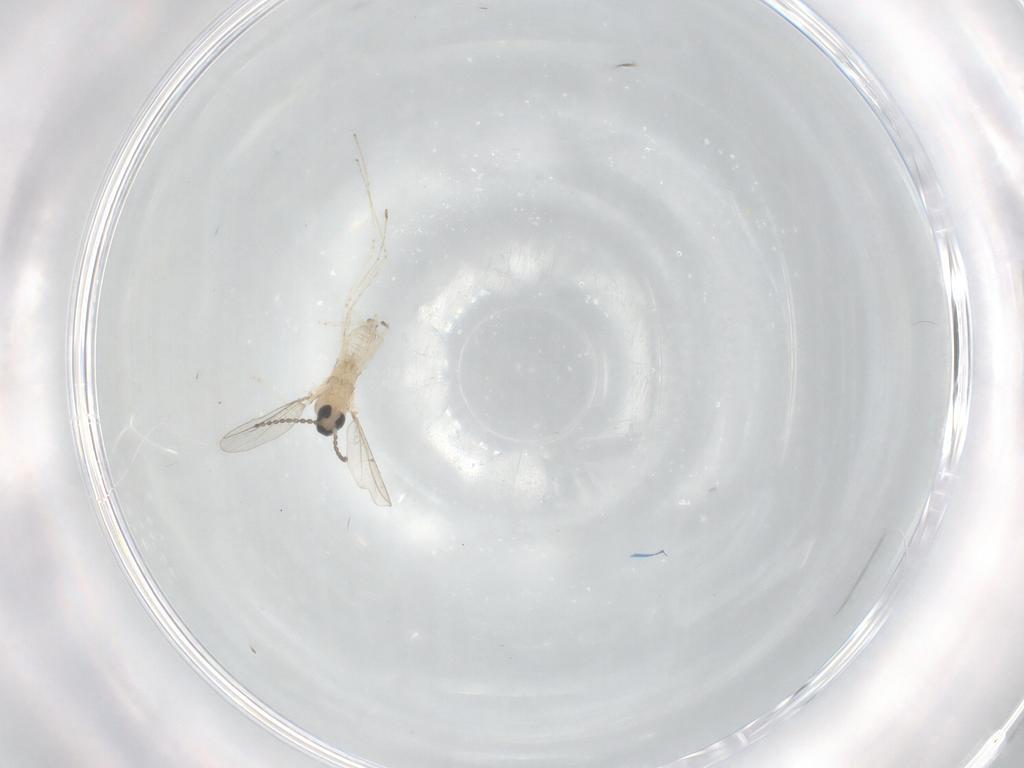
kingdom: Animalia
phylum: Arthropoda
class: Insecta
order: Diptera
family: Cecidomyiidae
